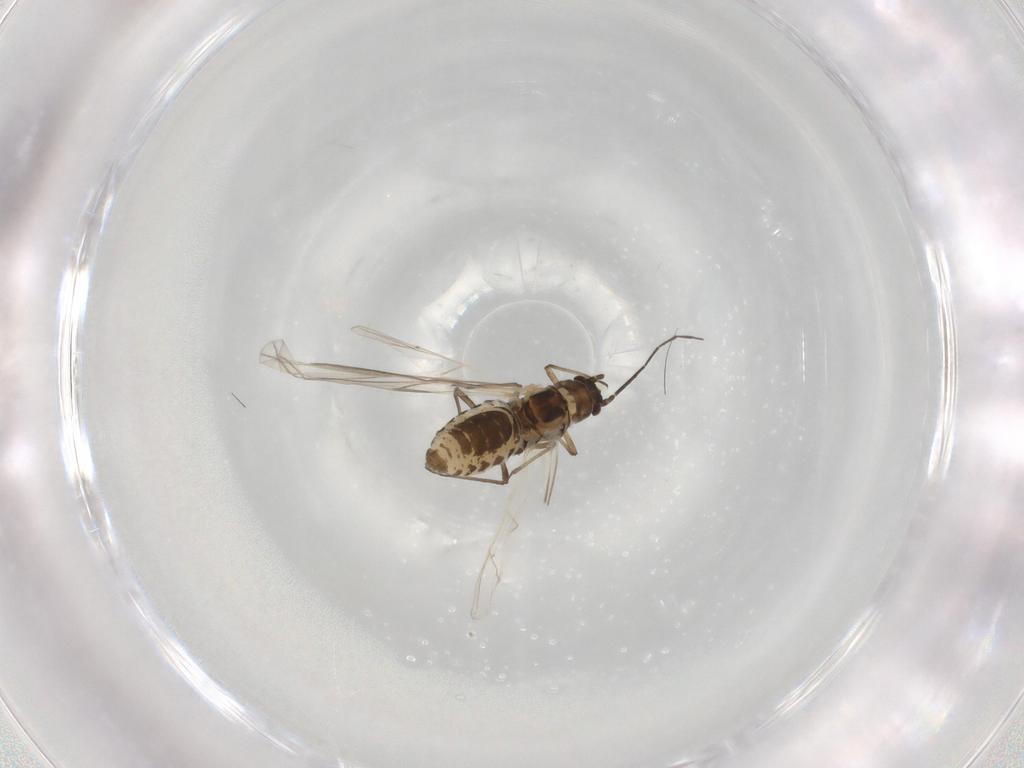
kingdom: Animalia
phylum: Arthropoda
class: Insecta
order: Hemiptera
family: Aphididae
